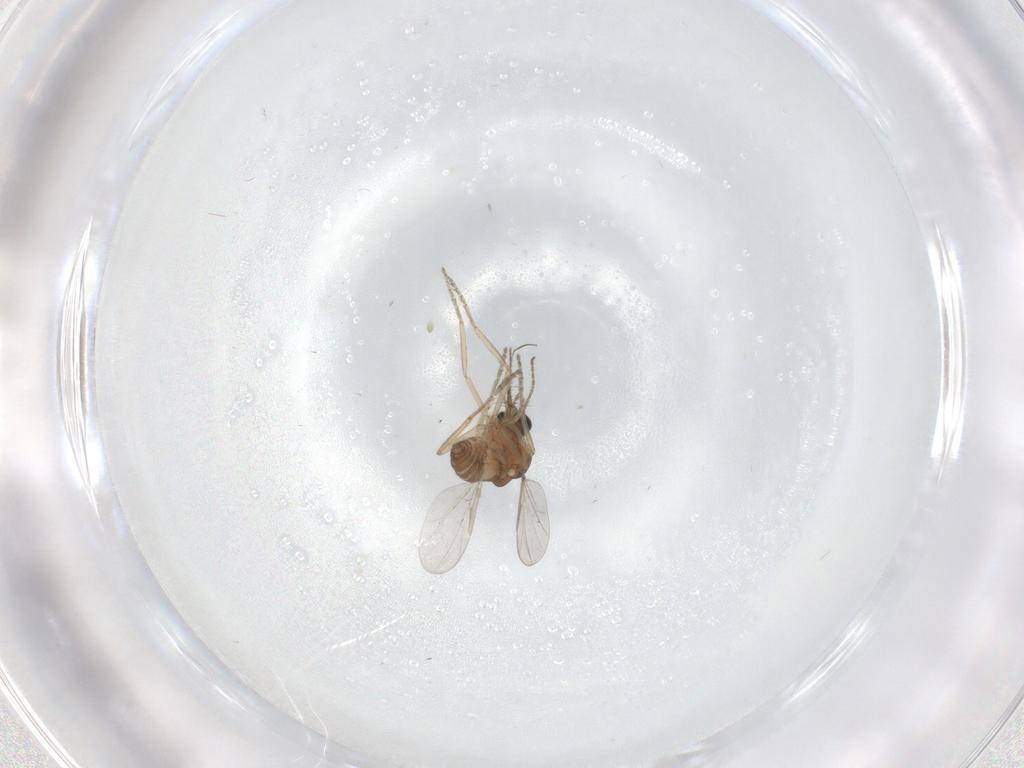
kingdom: Animalia
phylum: Arthropoda
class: Insecta
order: Diptera
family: Ceratopogonidae
